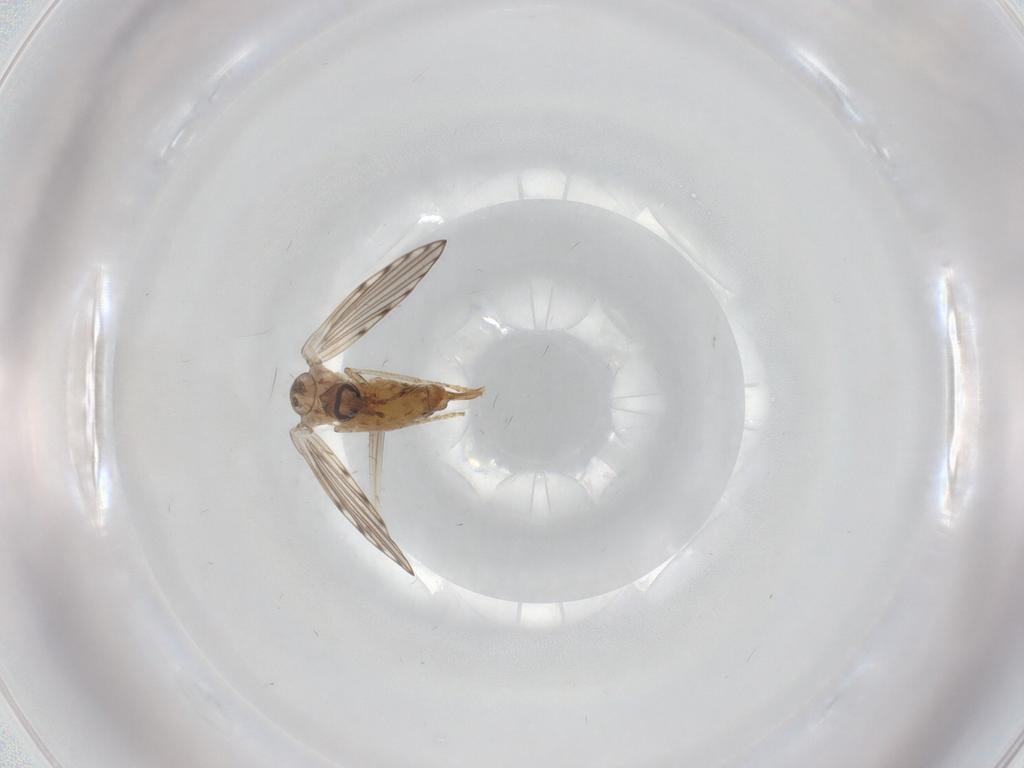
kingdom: Animalia
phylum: Arthropoda
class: Insecta
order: Diptera
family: Psychodidae
